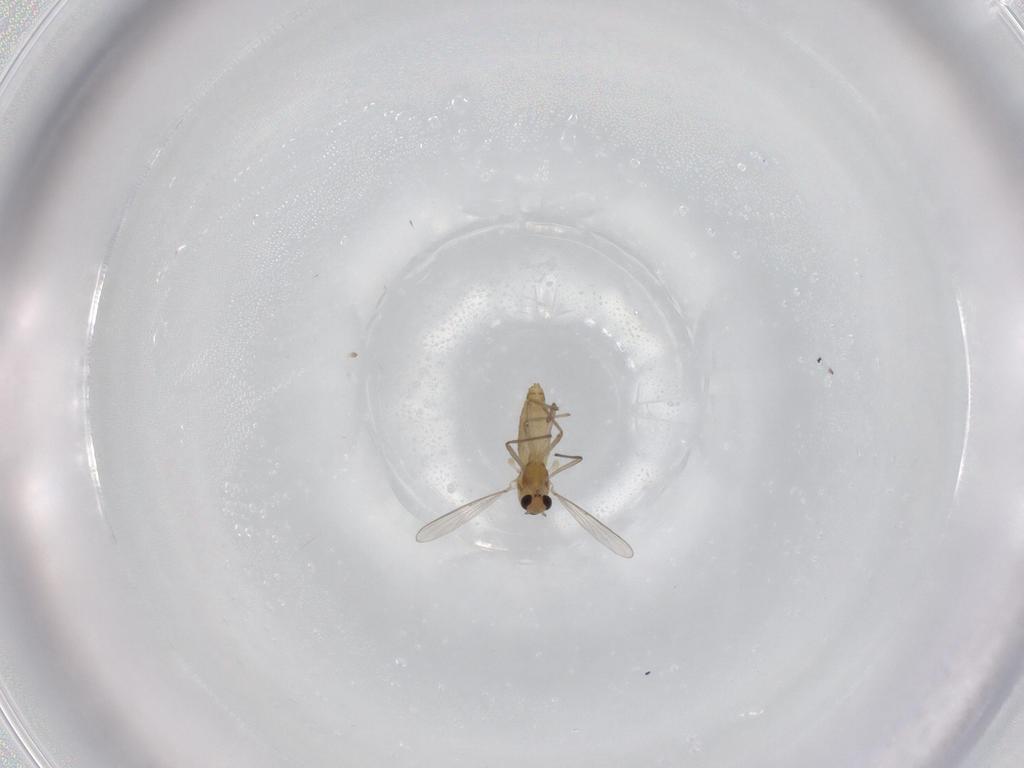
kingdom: Animalia
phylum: Arthropoda
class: Insecta
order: Diptera
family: Chironomidae
